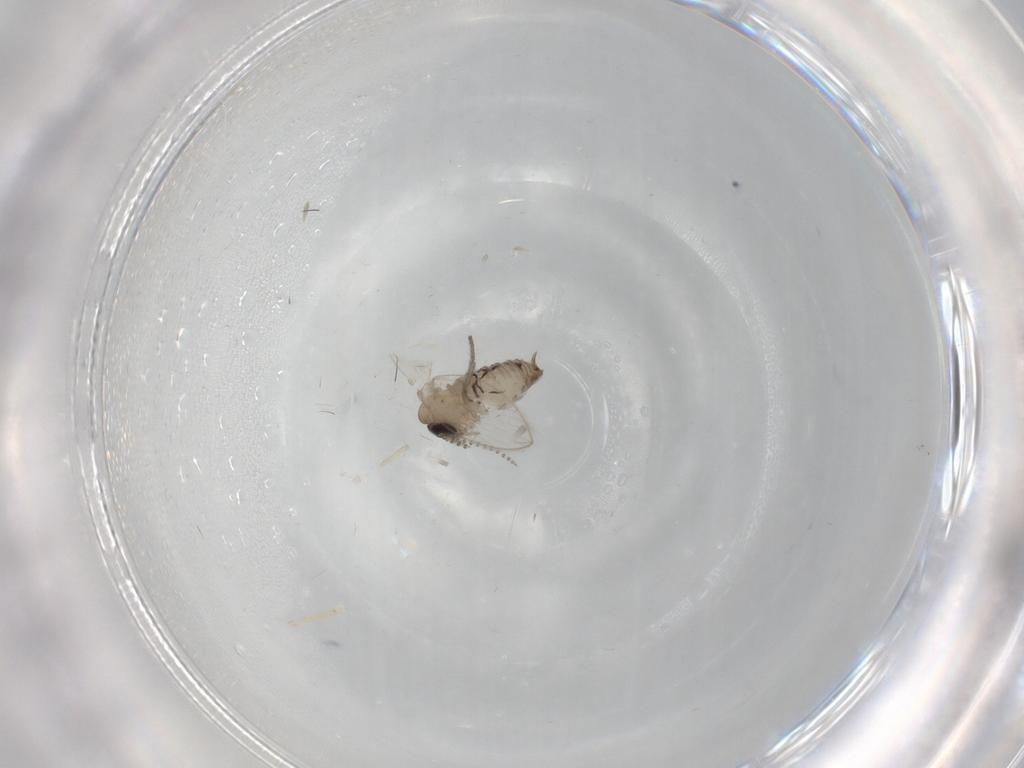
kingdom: Animalia
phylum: Arthropoda
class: Insecta
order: Diptera
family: Psychodidae
